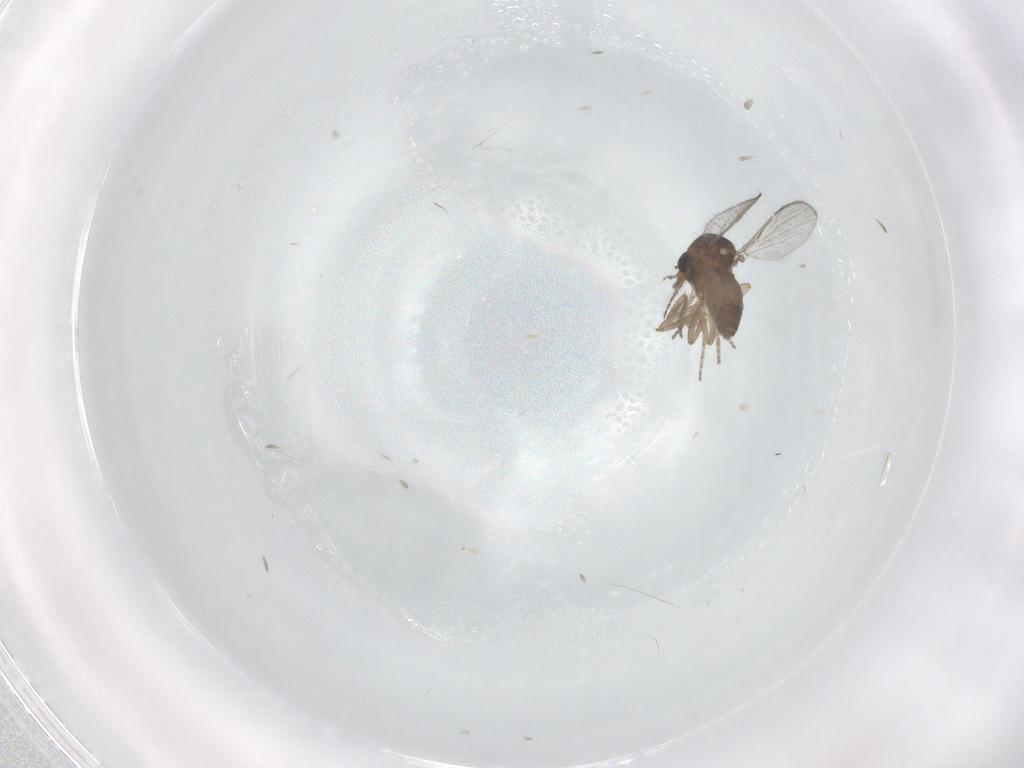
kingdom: Animalia
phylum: Arthropoda
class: Insecta
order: Diptera
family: Ceratopogonidae
